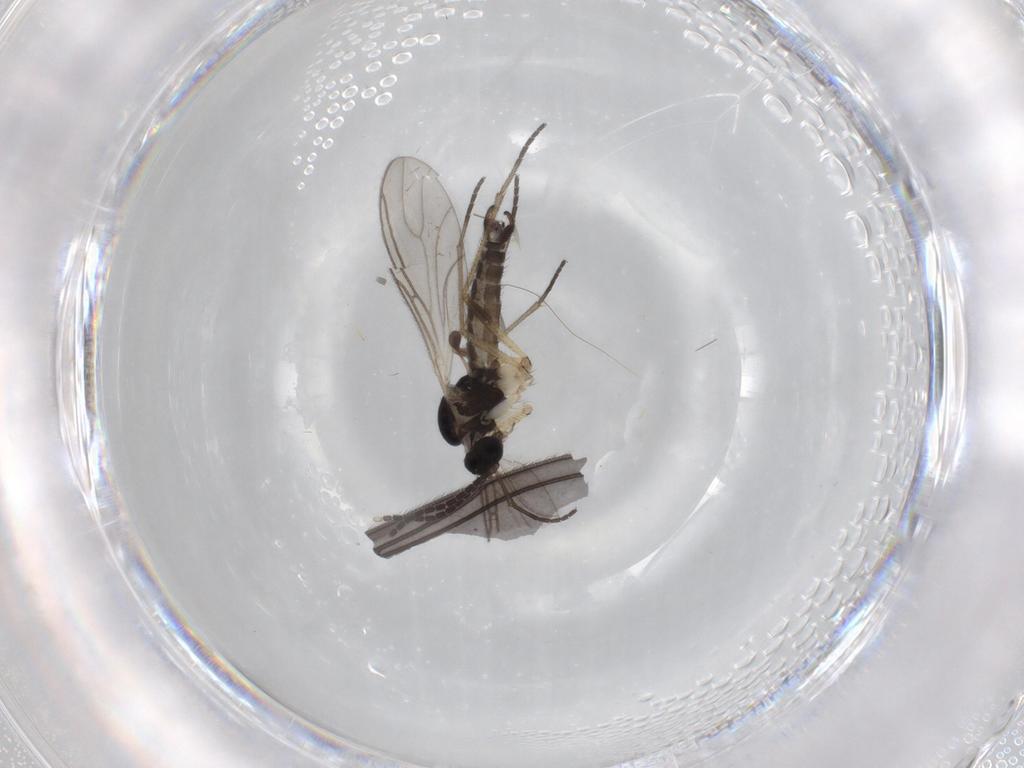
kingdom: Animalia
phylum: Arthropoda
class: Insecta
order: Diptera
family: Sciaridae
